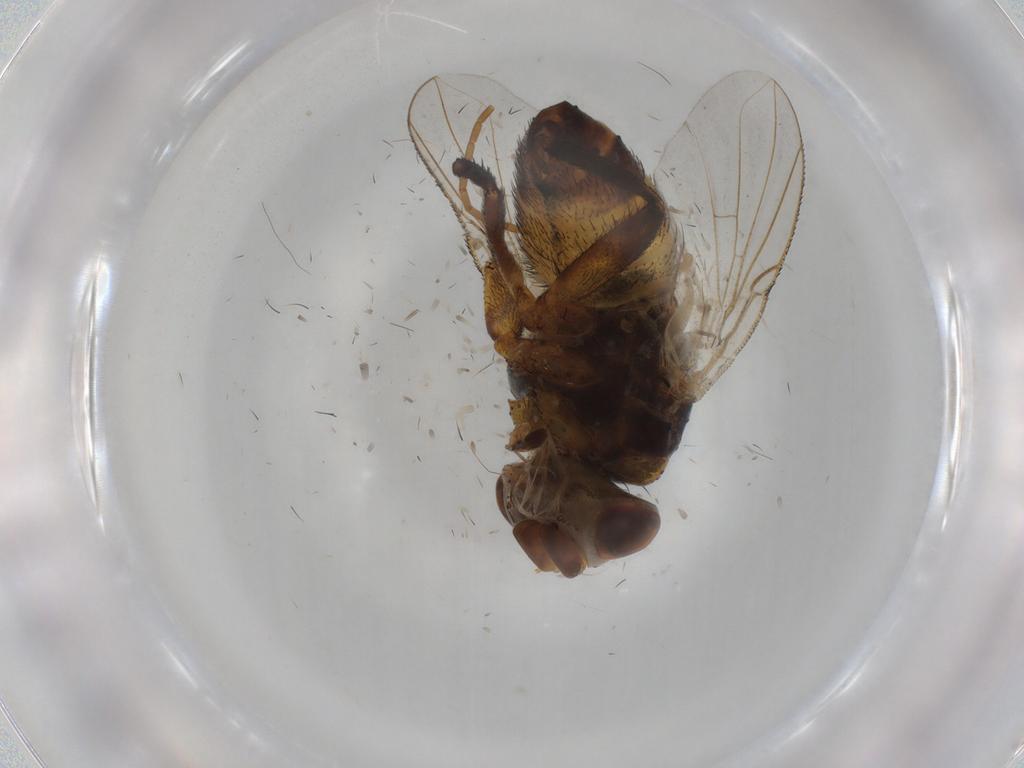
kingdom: Animalia
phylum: Arthropoda
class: Insecta
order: Diptera
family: Glossinidae
